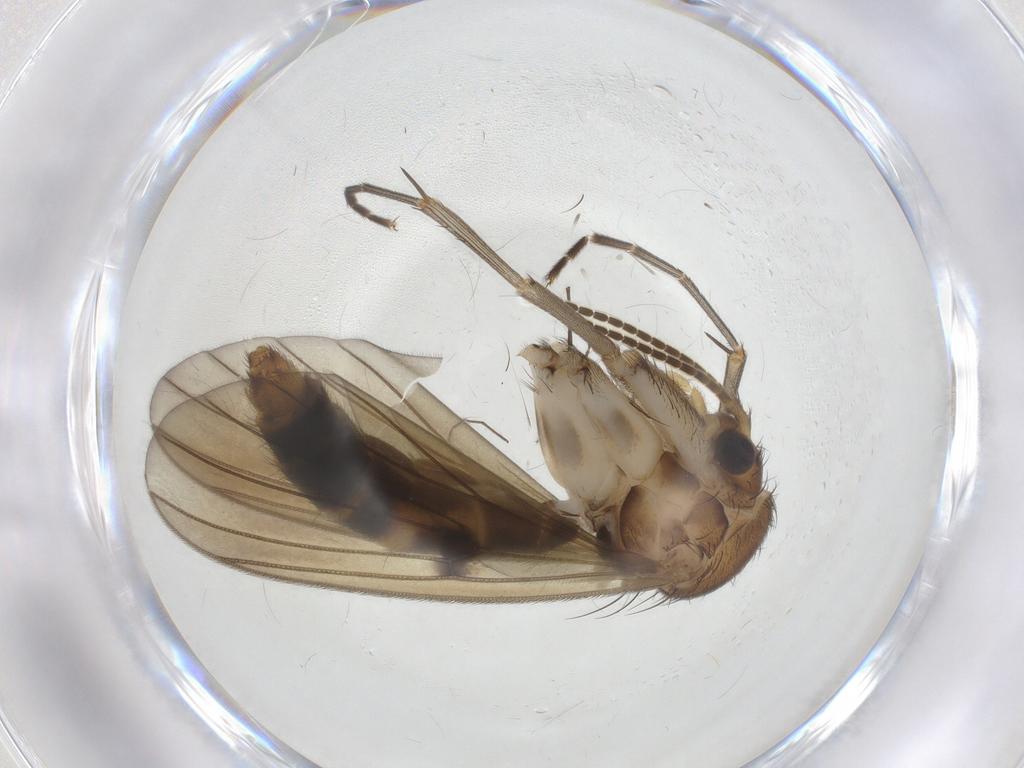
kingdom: Animalia
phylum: Arthropoda
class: Insecta
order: Diptera
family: Mycetophilidae
